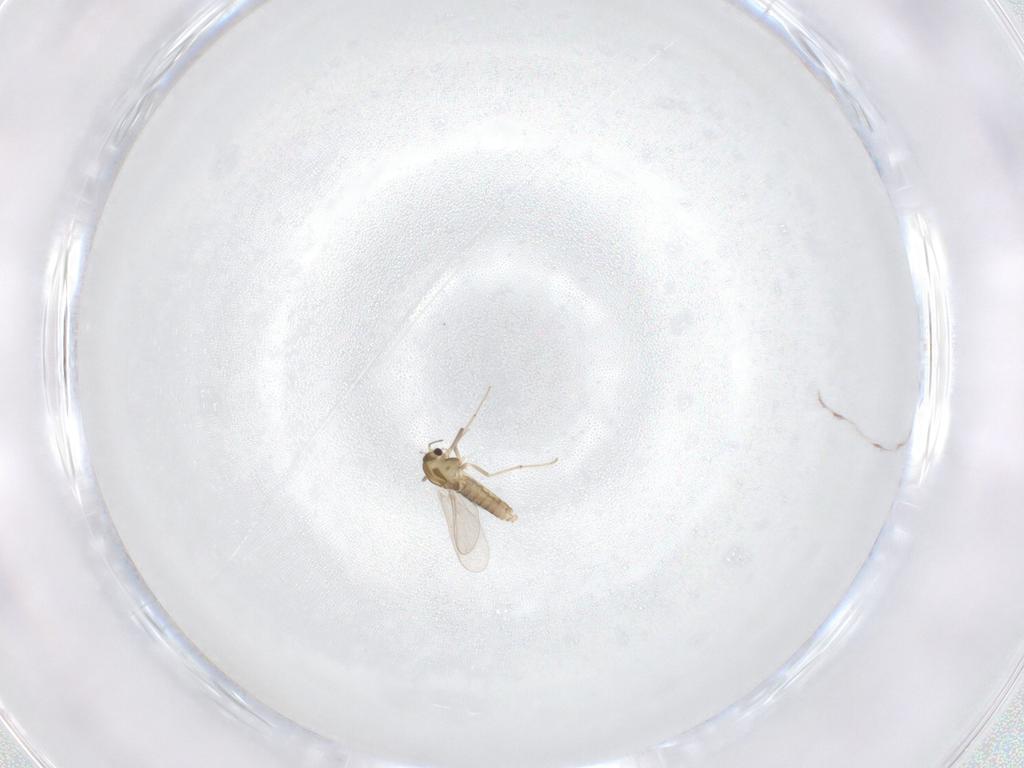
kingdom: Animalia
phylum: Arthropoda
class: Insecta
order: Diptera
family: Chironomidae
